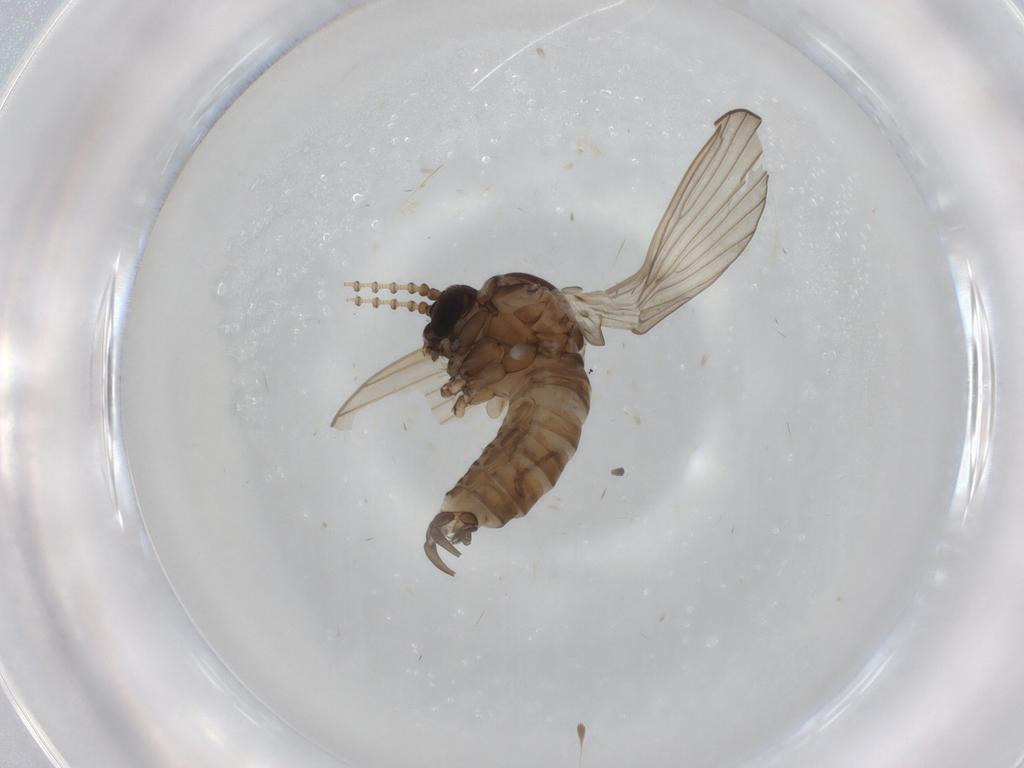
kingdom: Animalia
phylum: Arthropoda
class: Insecta
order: Diptera
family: Psychodidae
